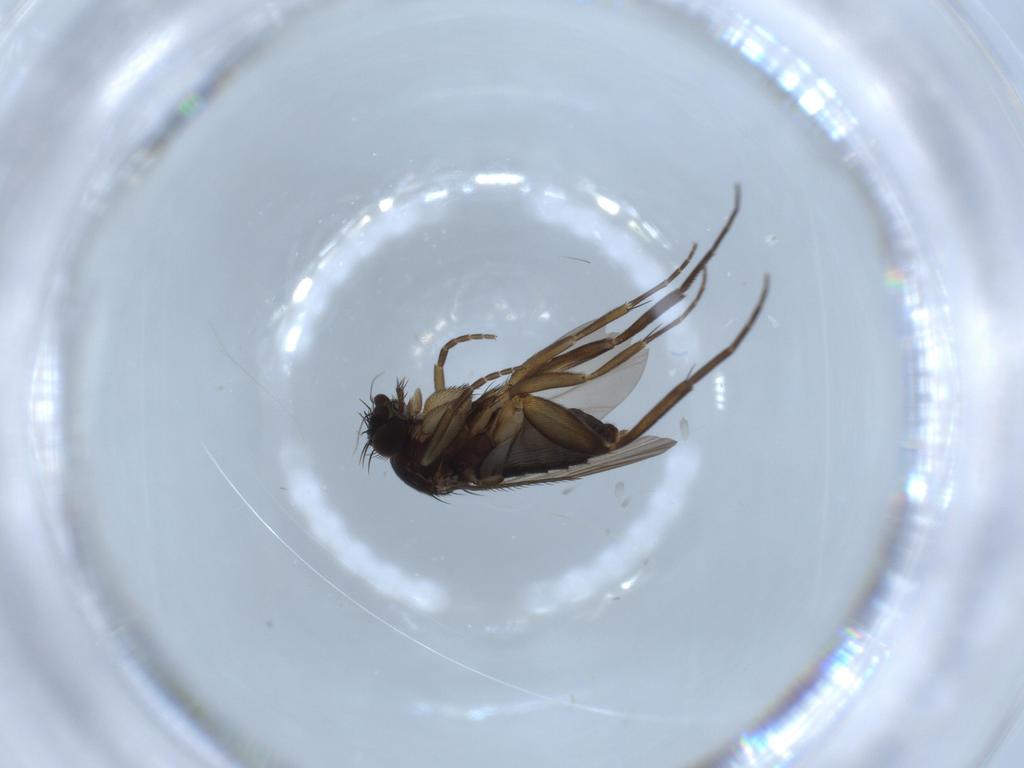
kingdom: Animalia
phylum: Arthropoda
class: Insecta
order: Diptera
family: Phoridae
